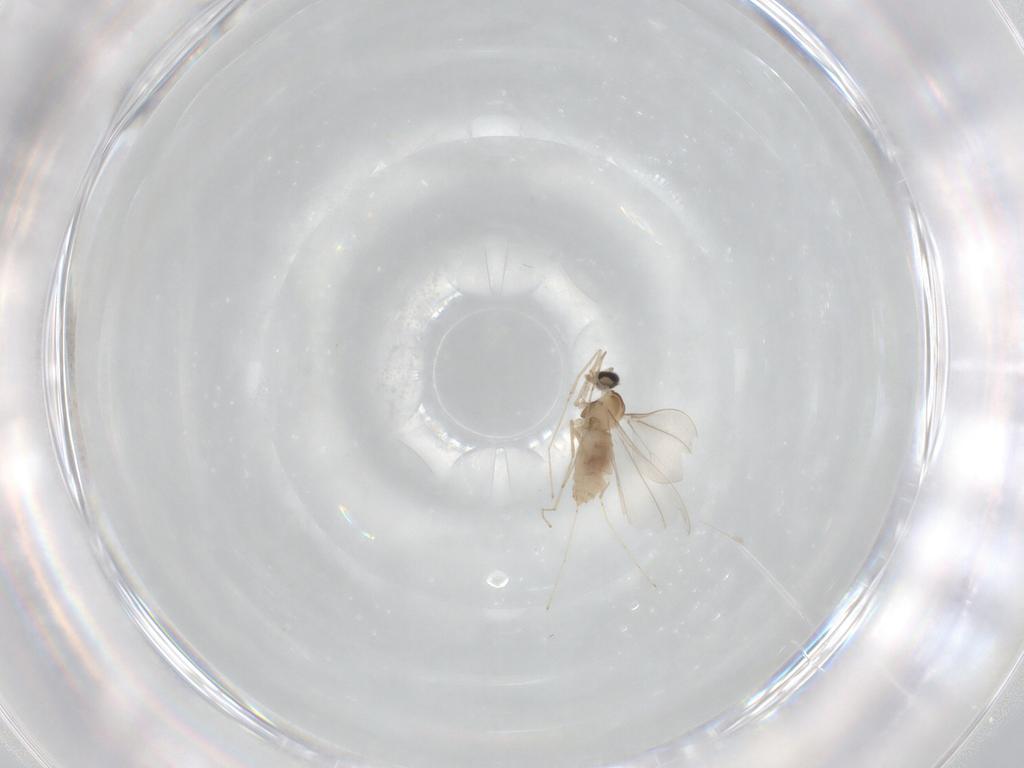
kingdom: Animalia
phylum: Arthropoda
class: Insecta
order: Diptera
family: Cecidomyiidae
